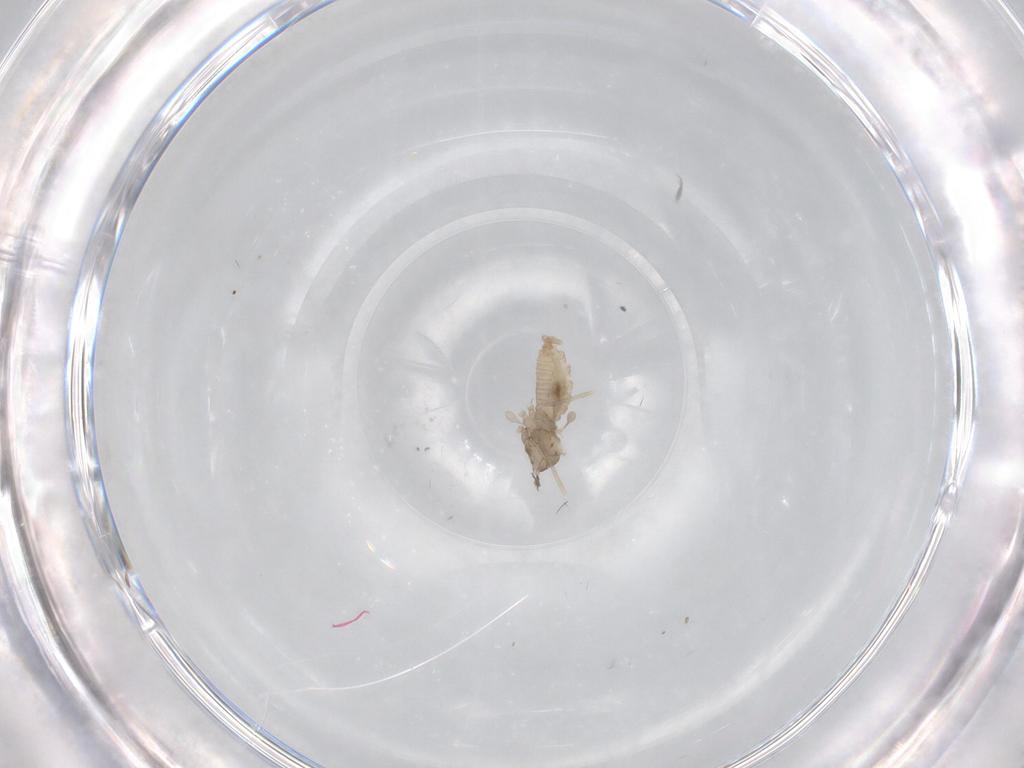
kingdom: Animalia
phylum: Arthropoda
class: Insecta
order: Diptera
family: Cecidomyiidae
